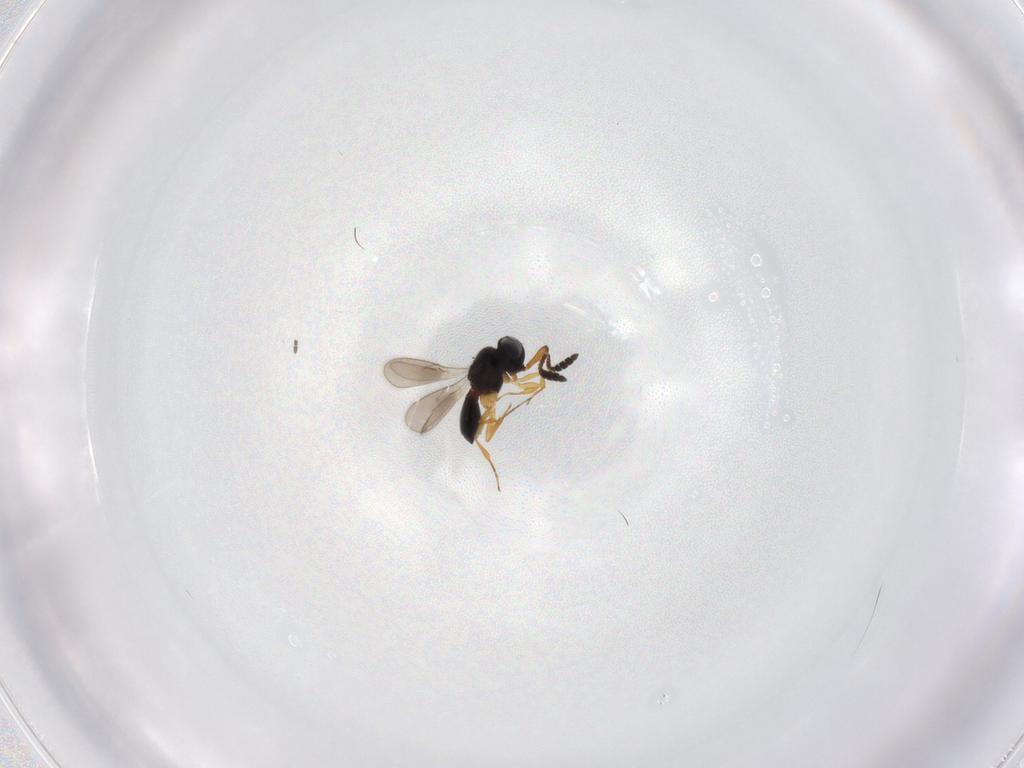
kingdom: Animalia
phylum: Arthropoda
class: Insecta
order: Hymenoptera
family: Scelionidae
